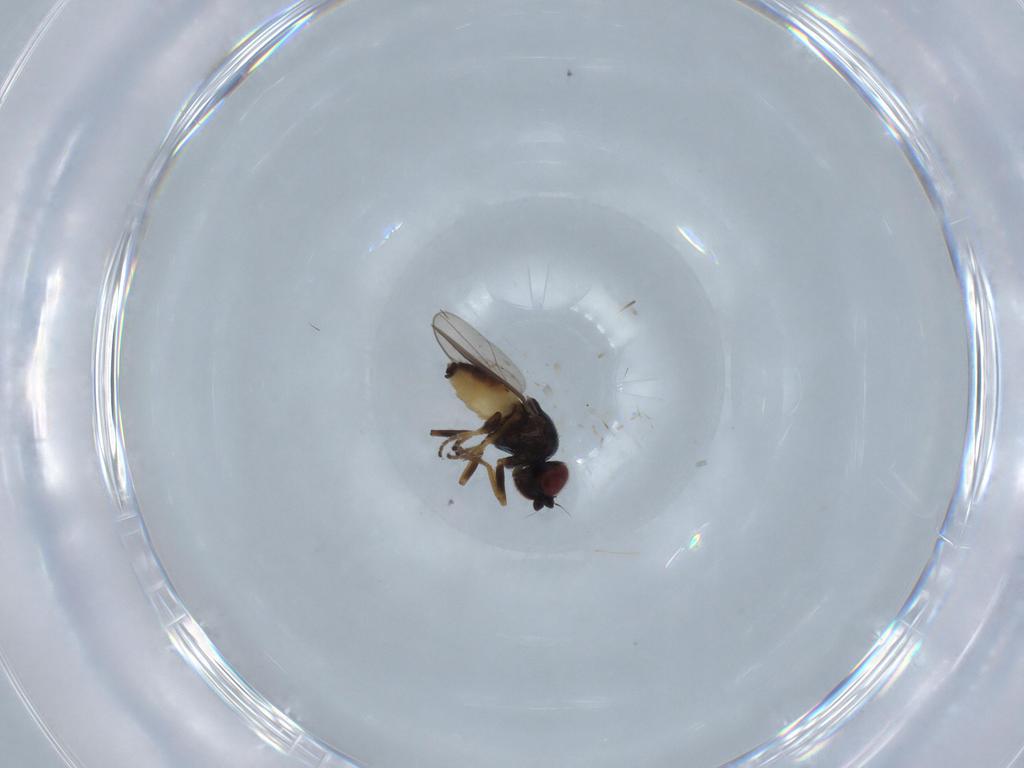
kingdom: Animalia
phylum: Arthropoda
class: Insecta
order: Diptera
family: Chloropidae
